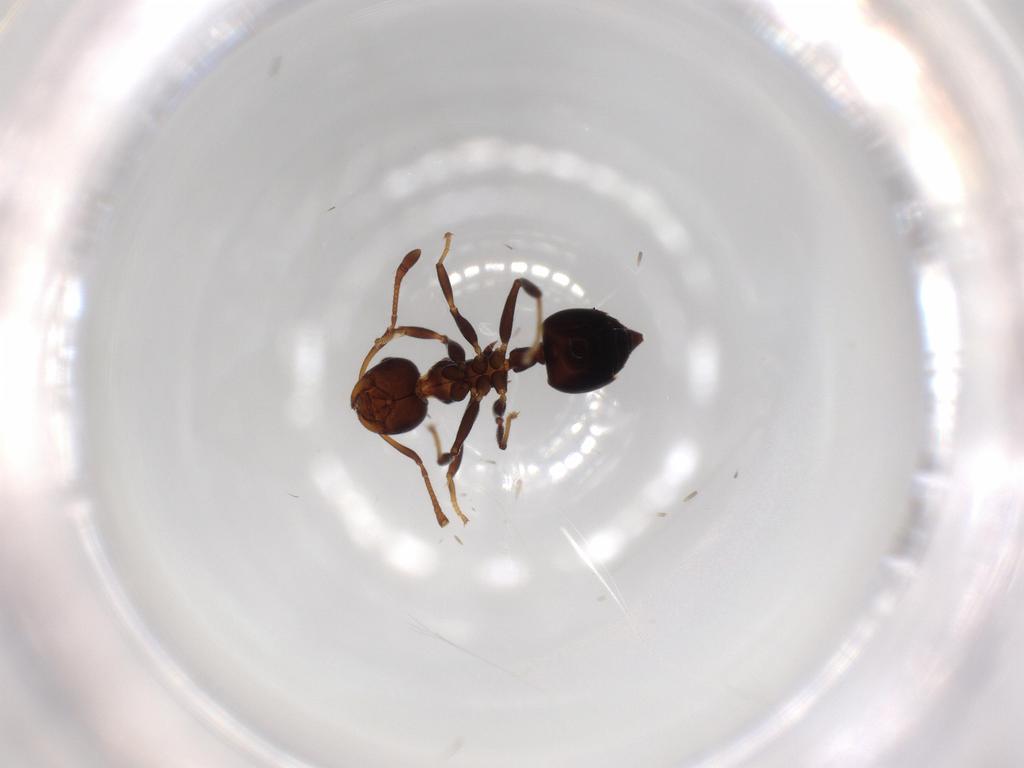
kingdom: Animalia
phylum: Arthropoda
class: Insecta
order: Hymenoptera
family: Formicidae
